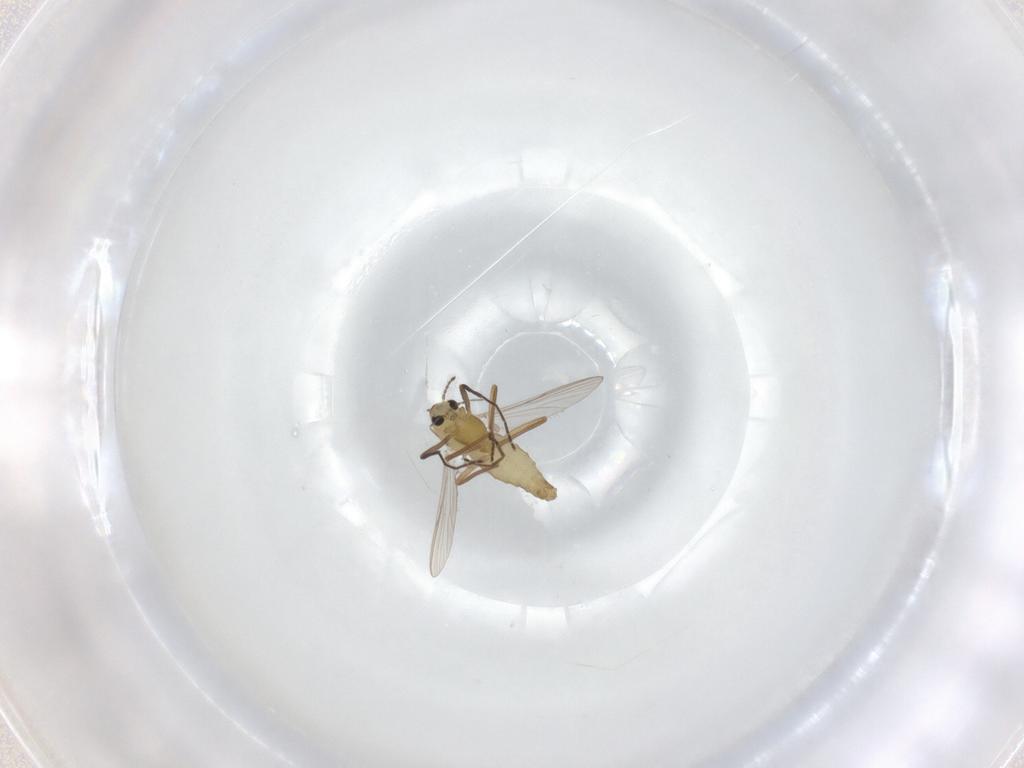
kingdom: Animalia
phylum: Arthropoda
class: Insecta
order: Diptera
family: Chironomidae
